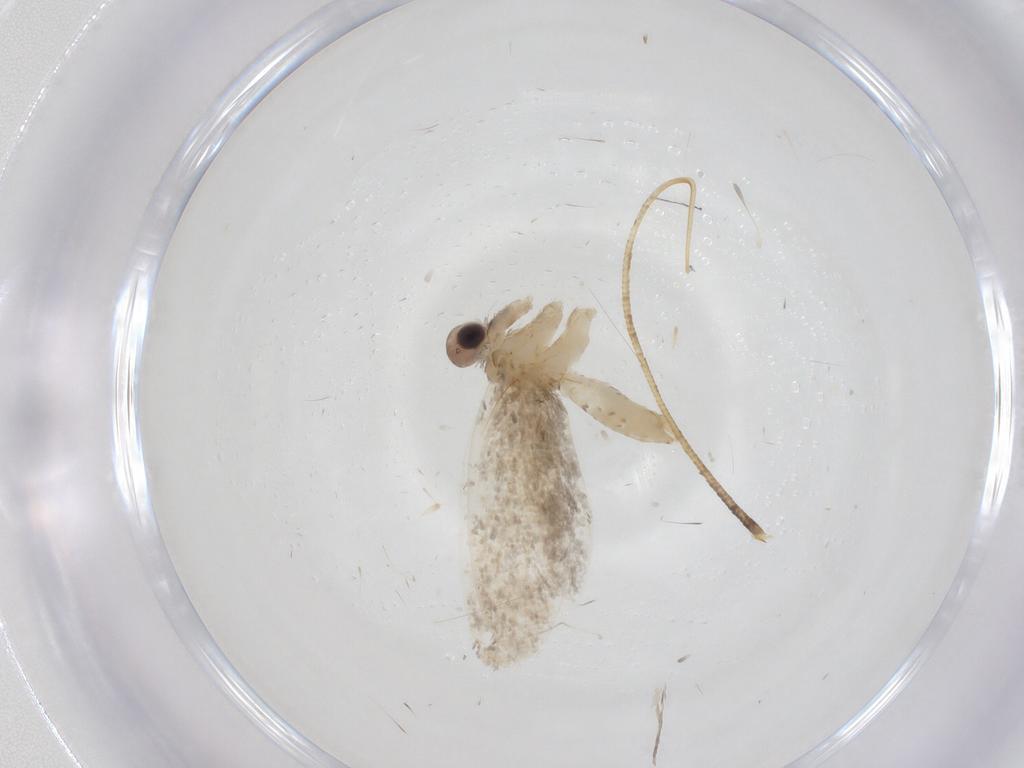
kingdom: Animalia
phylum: Arthropoda
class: Insecta
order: Lepidoptera
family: Psychidae
